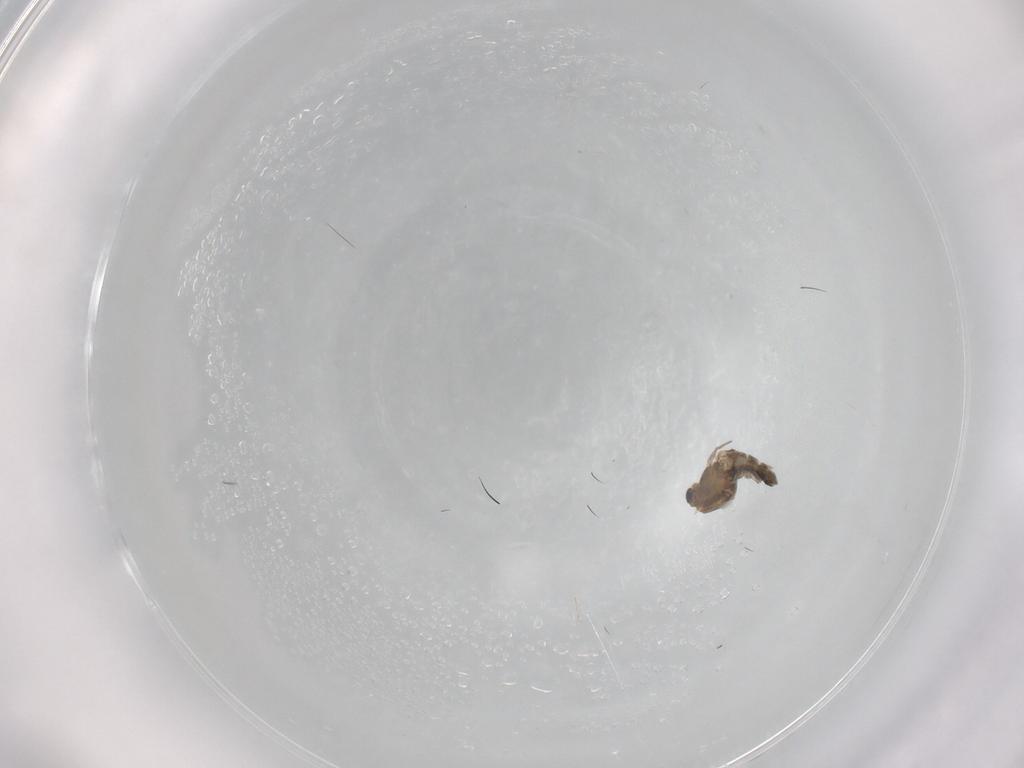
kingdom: Animalia
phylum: Arthropoda
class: Insecta
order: Diptera
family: Chironomidae
